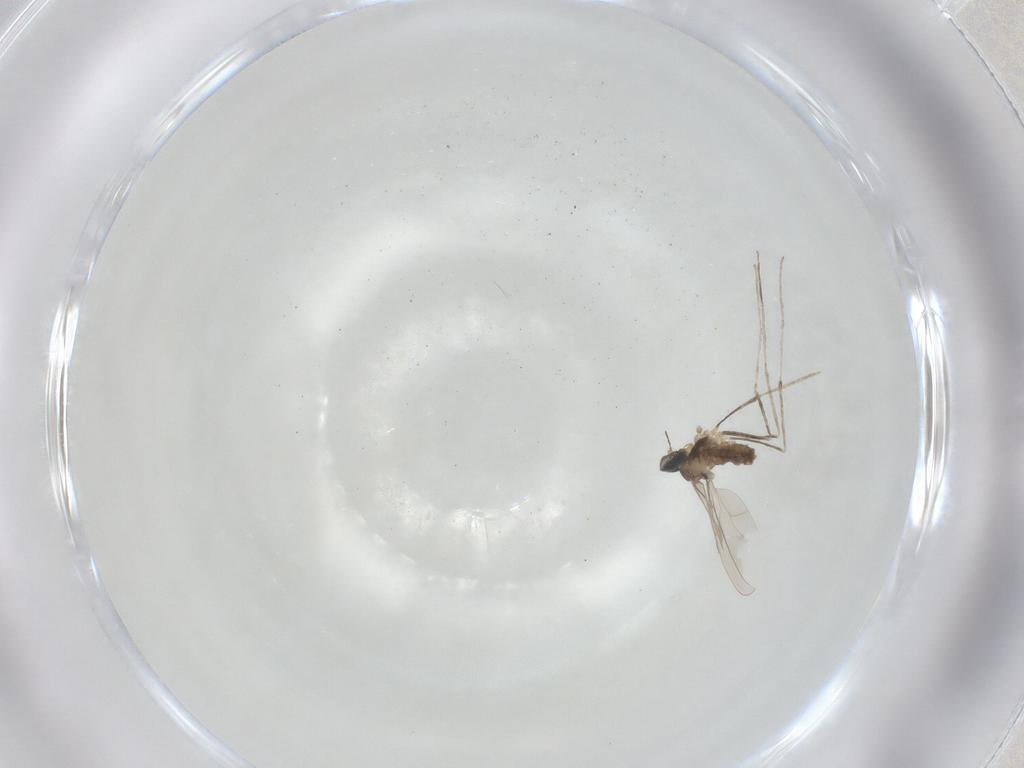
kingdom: Animalia
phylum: Arthropoda
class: Insecta
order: Diptera
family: Cecidomyiidae
